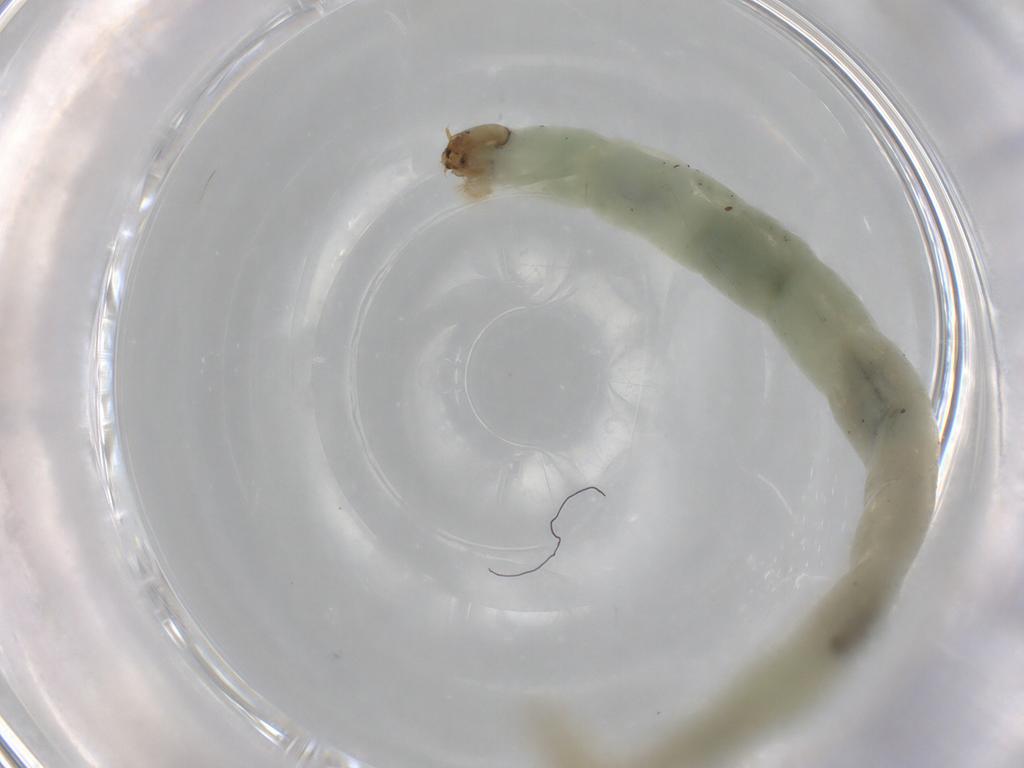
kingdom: Animalia
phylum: Arthropoda
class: Insecta
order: Diptera
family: Chironomidae
